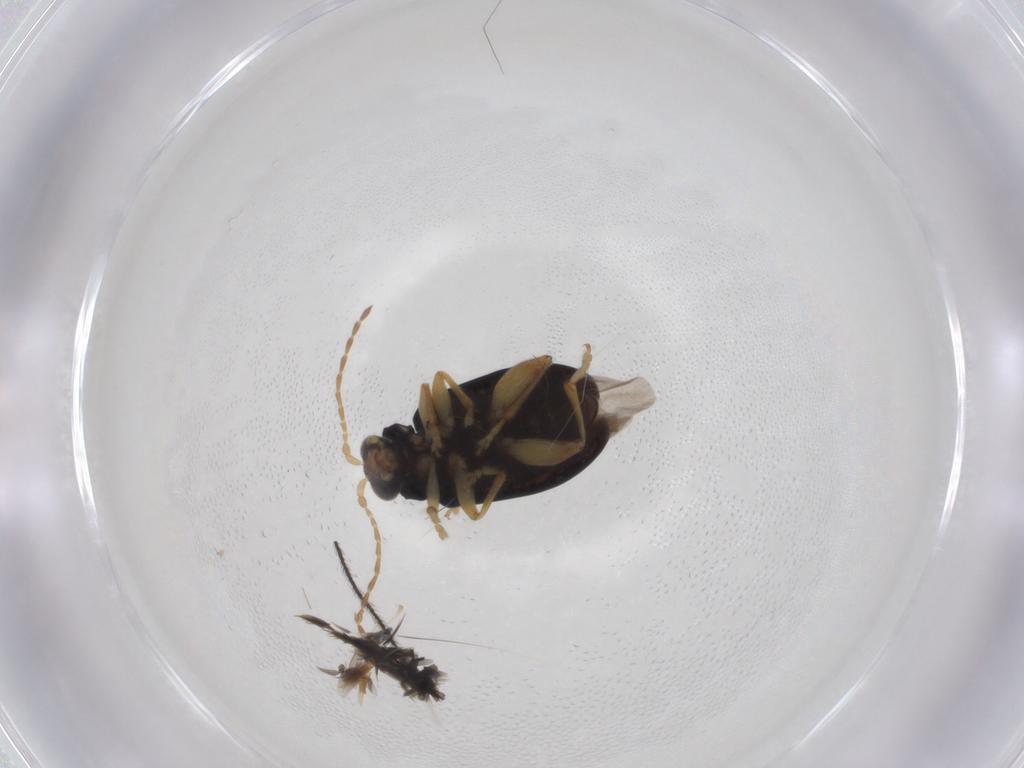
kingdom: Animalia
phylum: Arthropoda
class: Insecta
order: Coleoptera
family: Chrysomelidae
